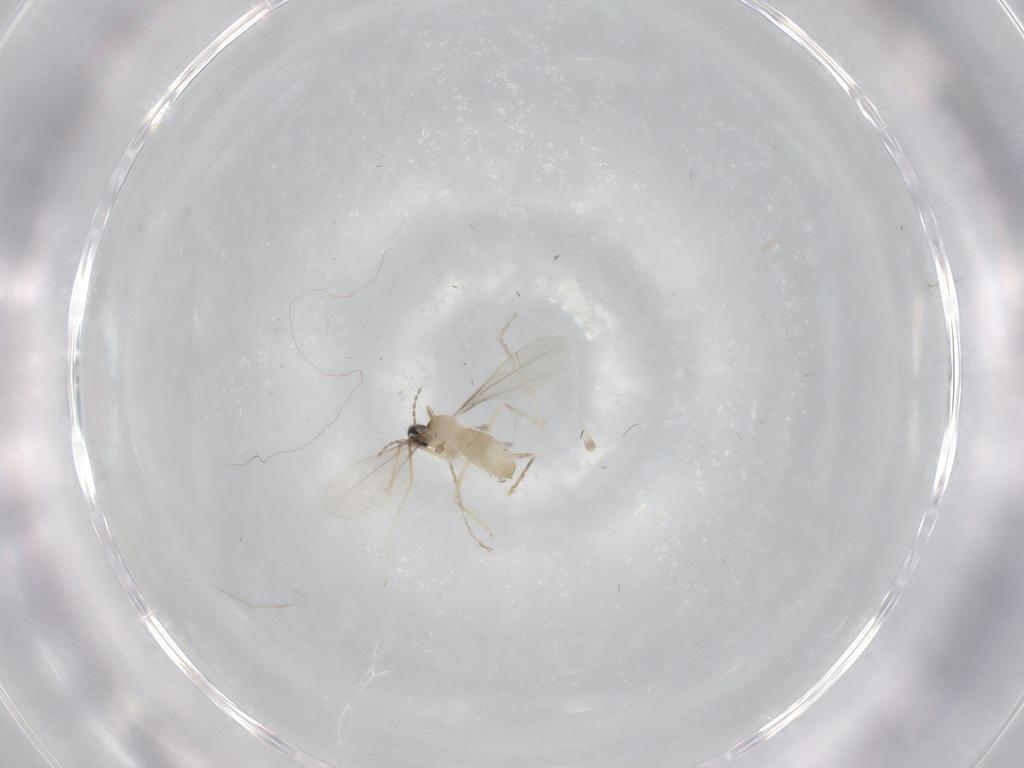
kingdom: Animalia
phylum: Arthropoda
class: Insecta
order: Diptera
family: Cecidomyiidae
